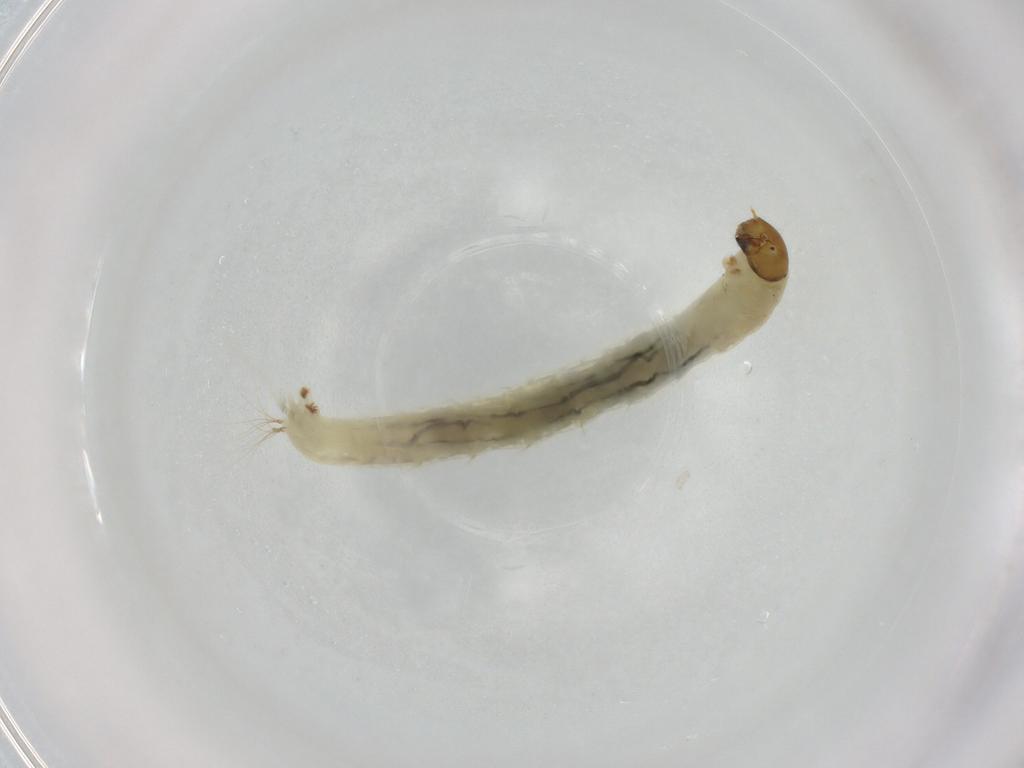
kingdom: Animalia
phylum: Arthropoda
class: Insecta
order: Diptera
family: Chironomidae
